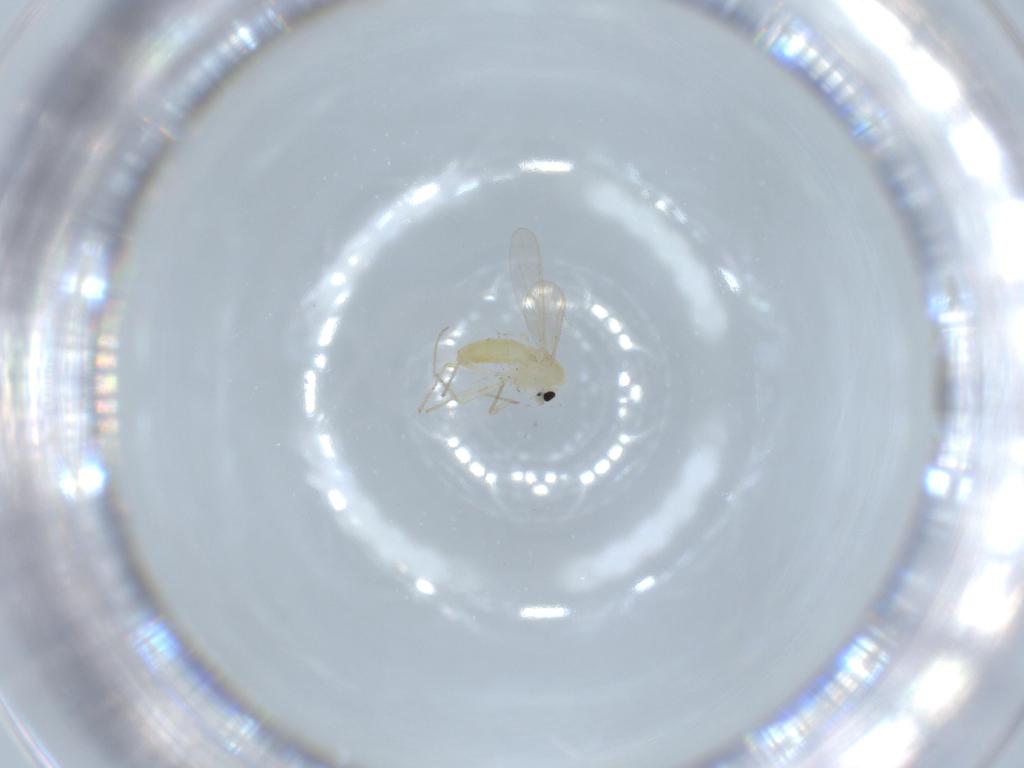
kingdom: Animalia
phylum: Arthropoda
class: Insecta
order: Diptera
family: Chironomidae
